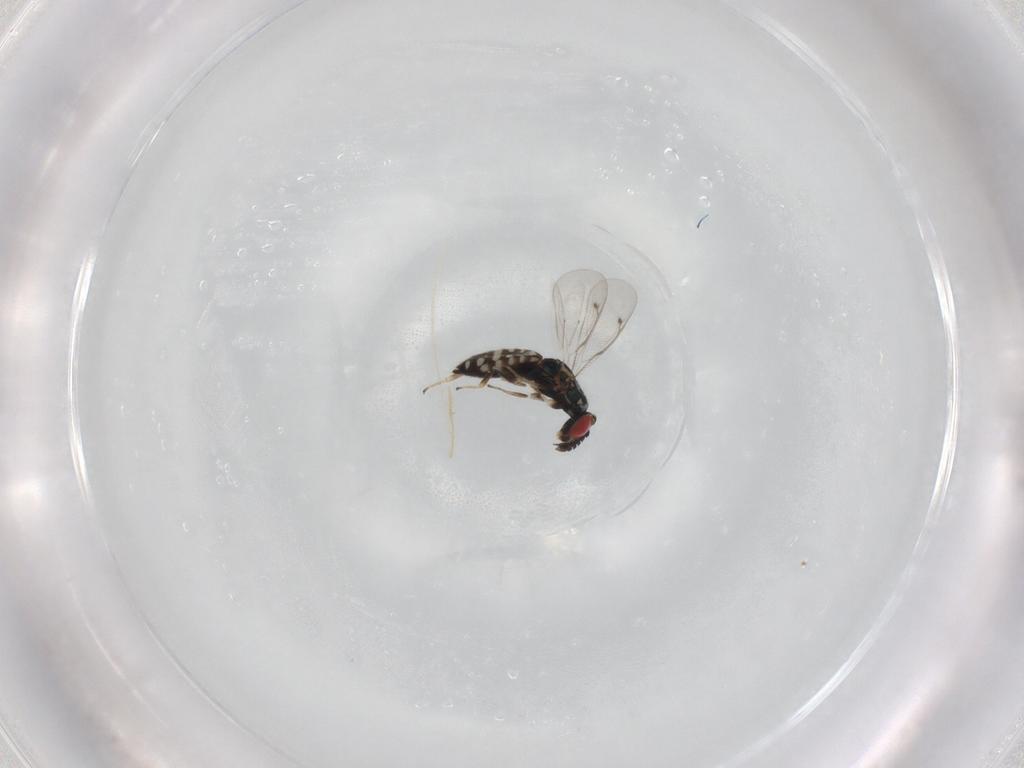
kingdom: Animalia
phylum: Arthropoda
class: Insecta
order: Hymenoptera
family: Eulophidae
